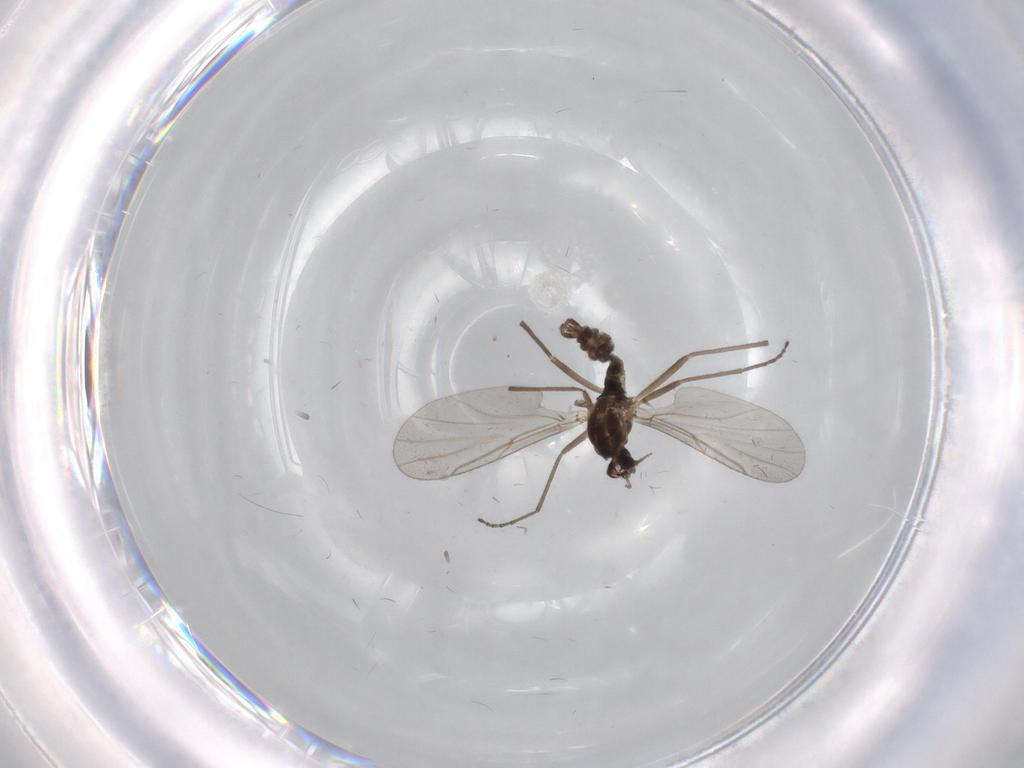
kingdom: Animalia
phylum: Arthropoda
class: Insecta
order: Diptera
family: Cecidomyiidae
